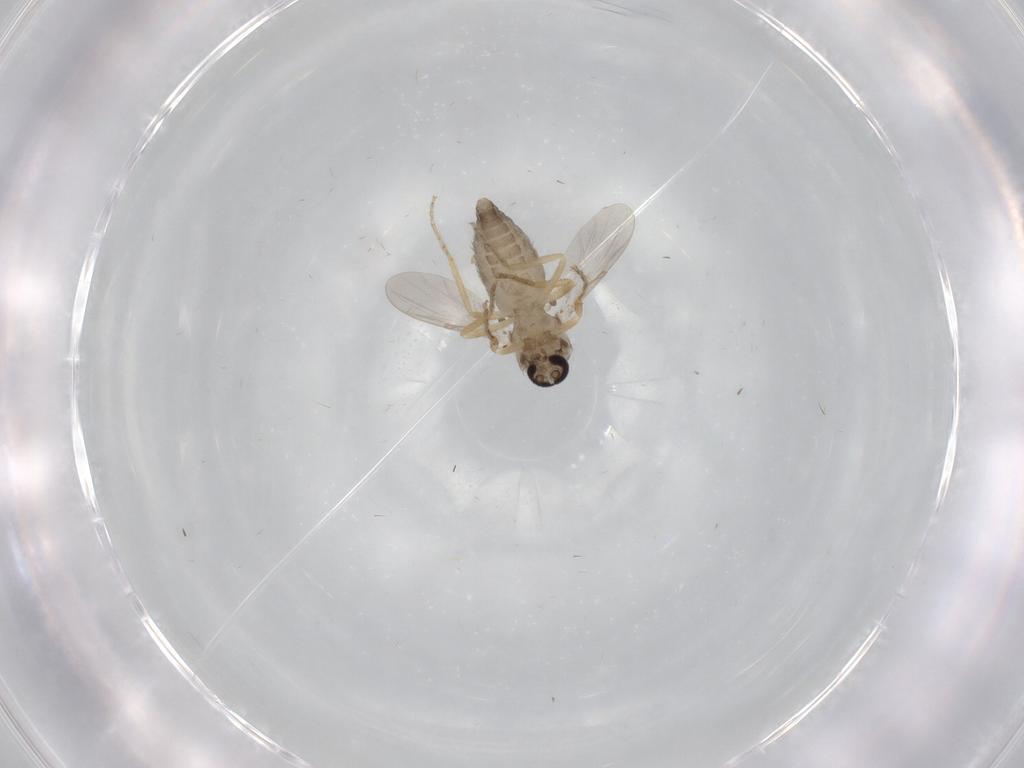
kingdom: Animalia
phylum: Arthropoda
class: Insecta
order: Diptera
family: Ceratopogonidae
